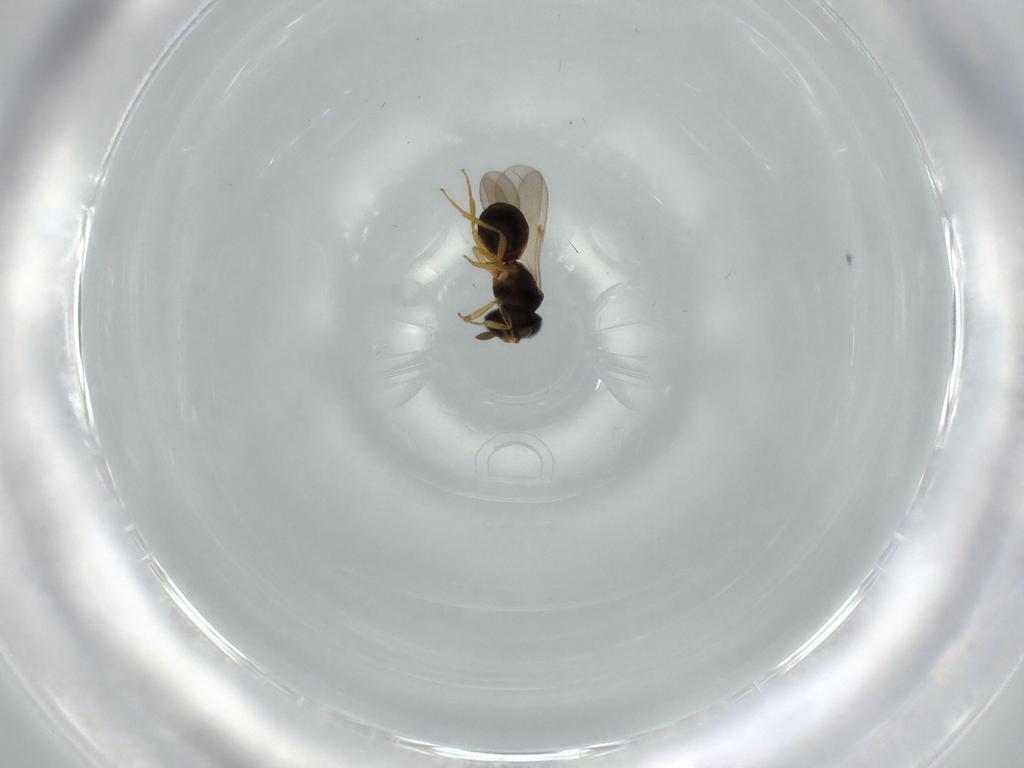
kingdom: Animalia
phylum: Arthropoda
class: Insecta
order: Hymenoptera
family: Scelionidae
